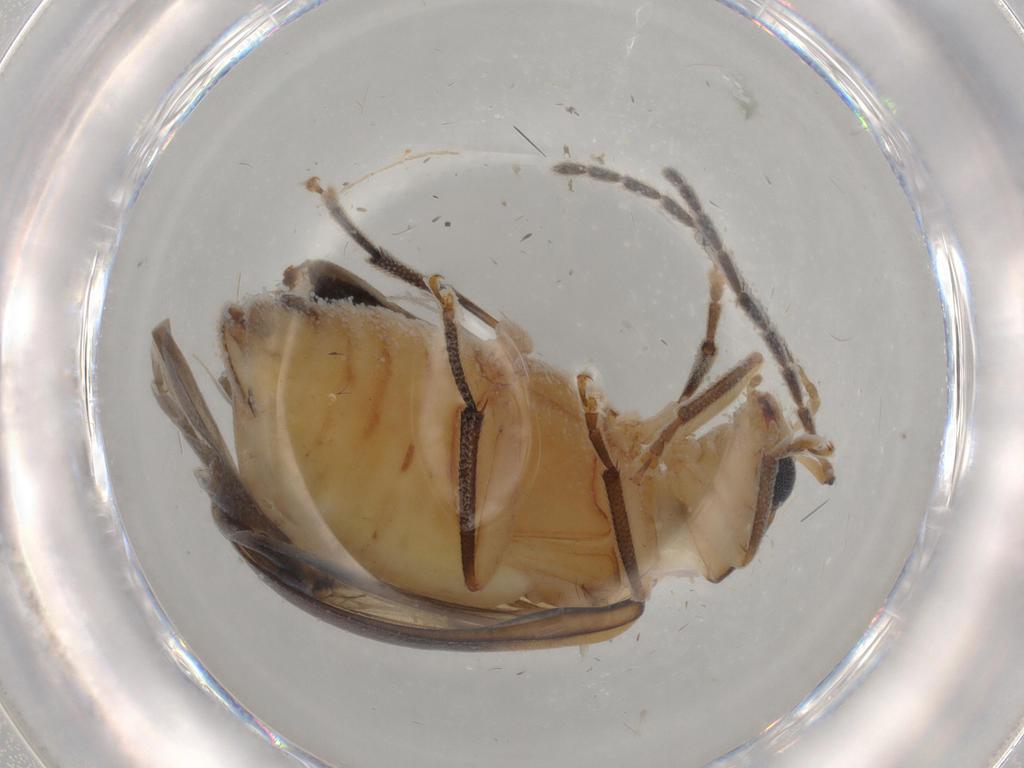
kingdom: Animalia
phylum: Arthropoda
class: Insecta
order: Coleoptera
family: Chrysomelidae
